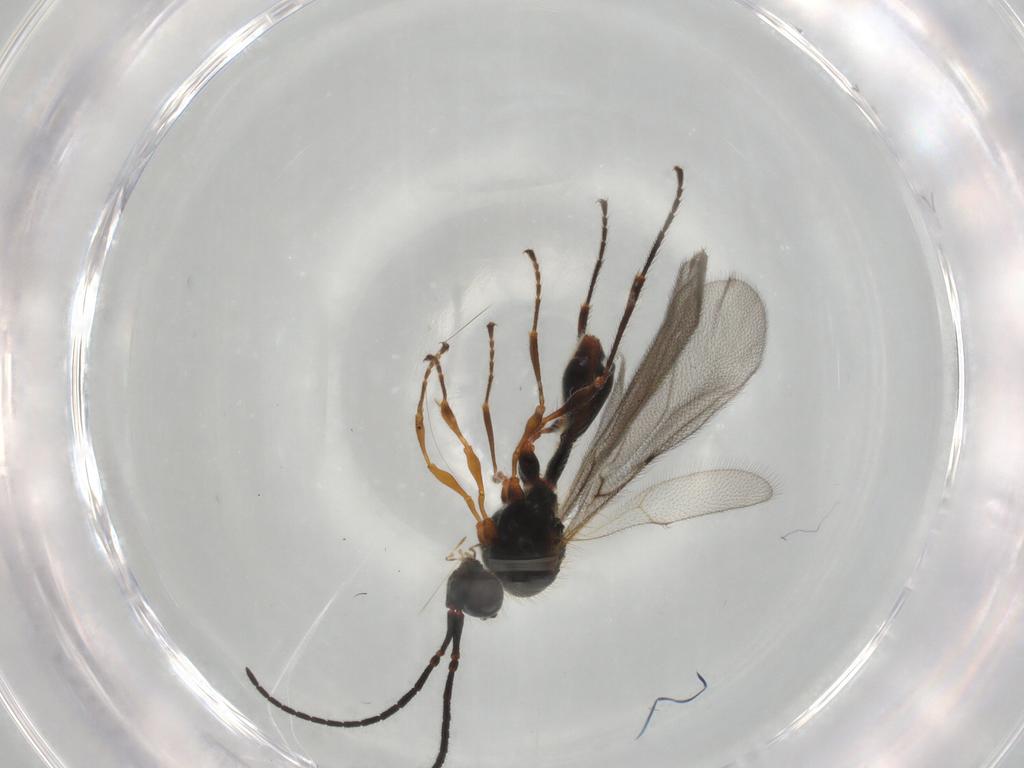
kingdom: Animalia
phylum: Arthropoda
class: Insecta
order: Hymenoptera
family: Diapriidae
